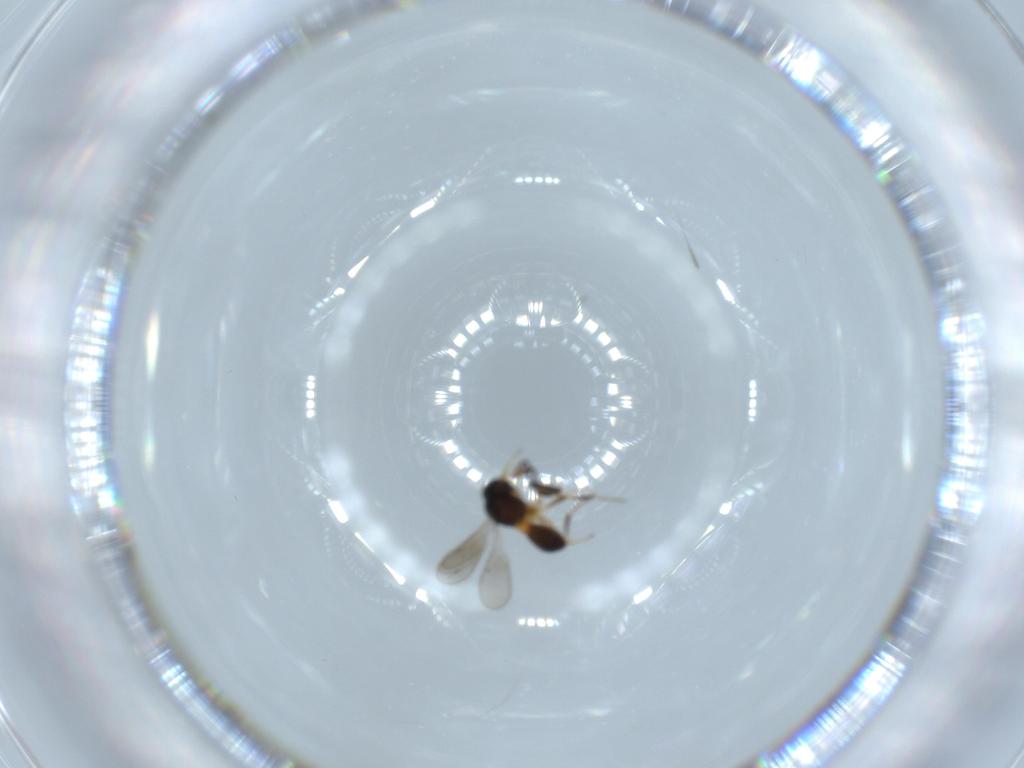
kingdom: Animalia
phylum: Arthropoda
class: Insecta
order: Hymenoptera
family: Scelionidae
